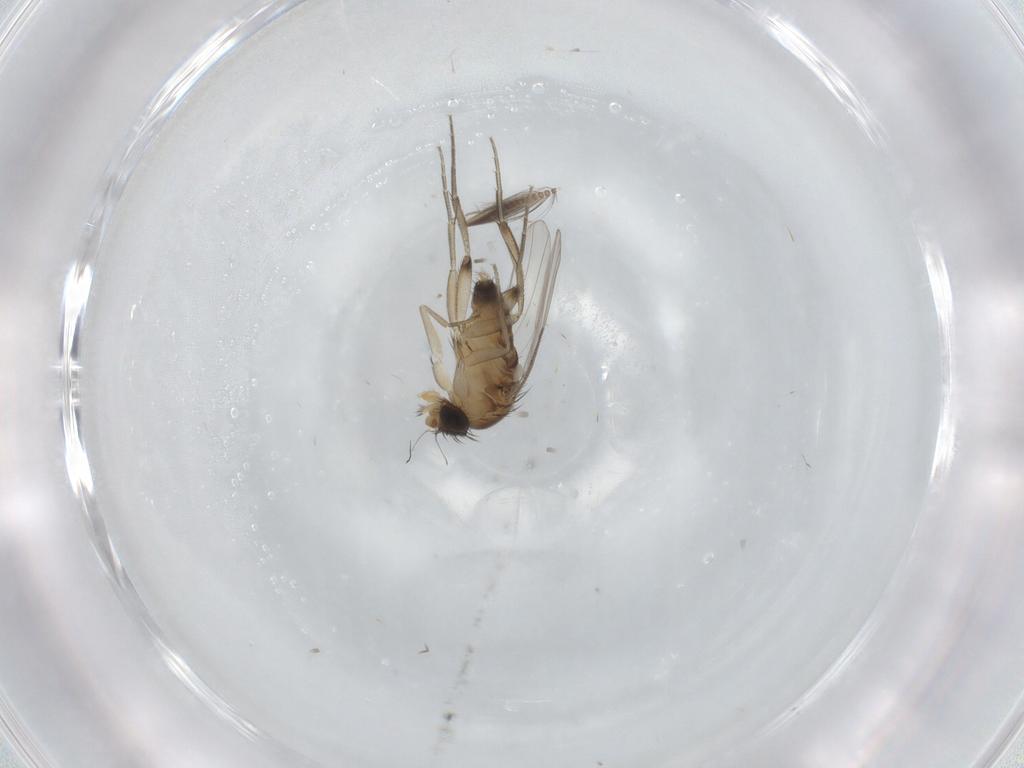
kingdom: Animalia
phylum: Arthropoda
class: Insecta
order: Diptera
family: Ceratopogonidae
